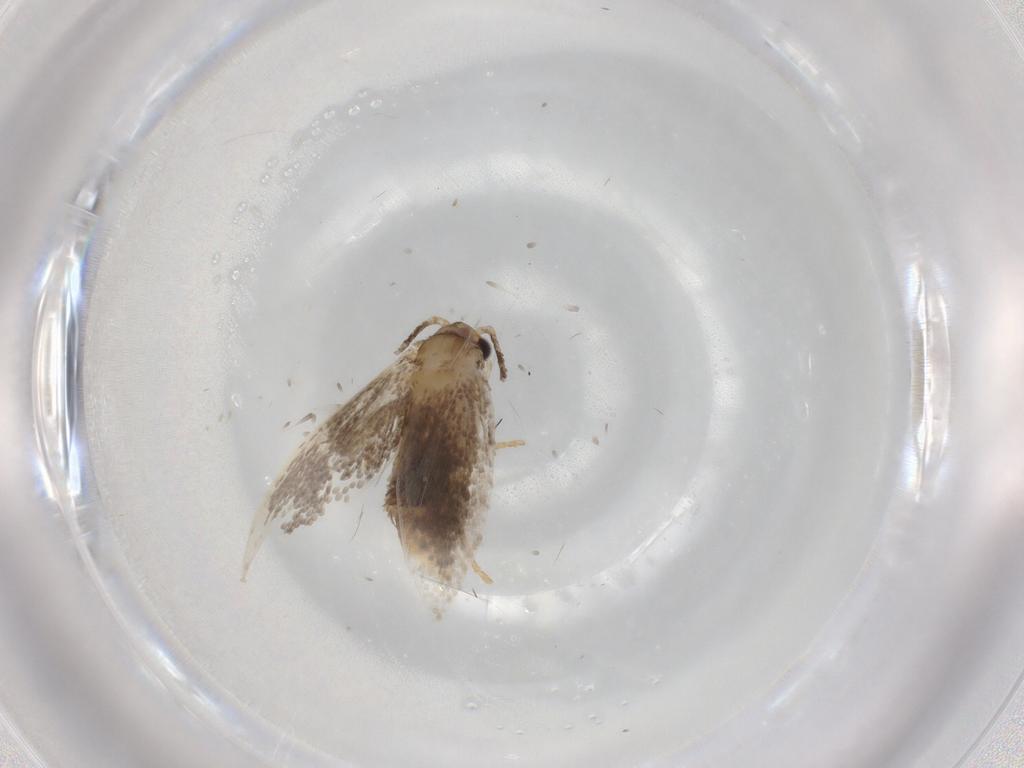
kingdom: Animalia
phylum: Arthropoda
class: Insecta
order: Lepidoptera
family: Tineidae
